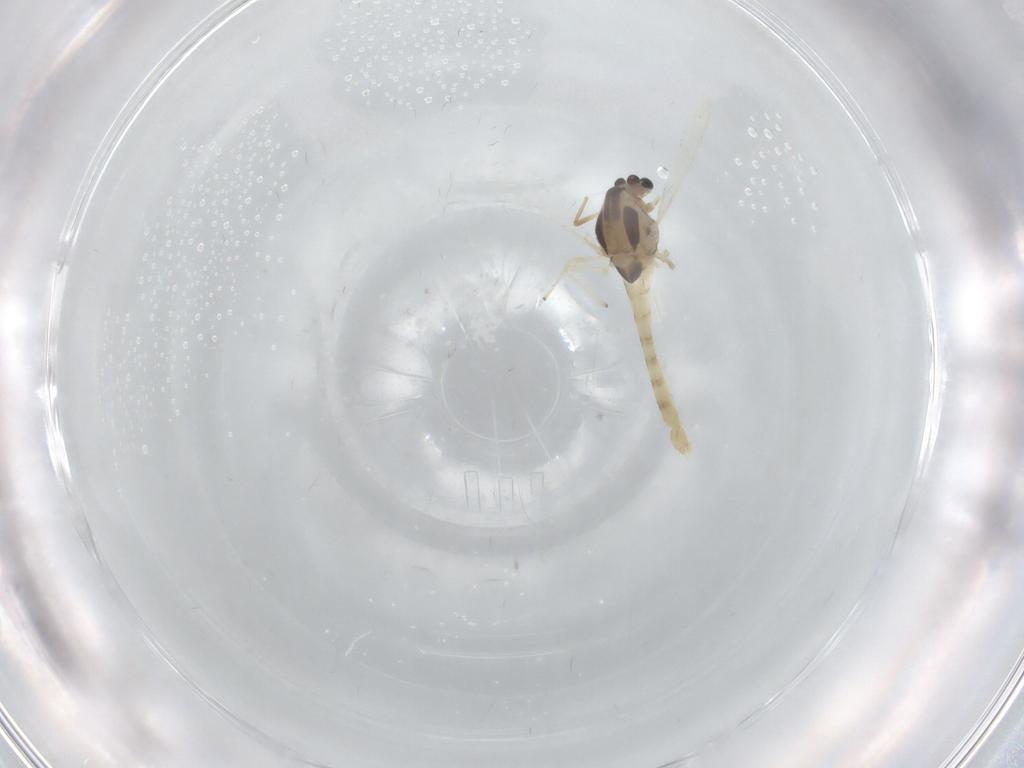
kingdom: Animalia
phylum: Arthropoda
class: Insecta
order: Diptera
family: Chironomidae
